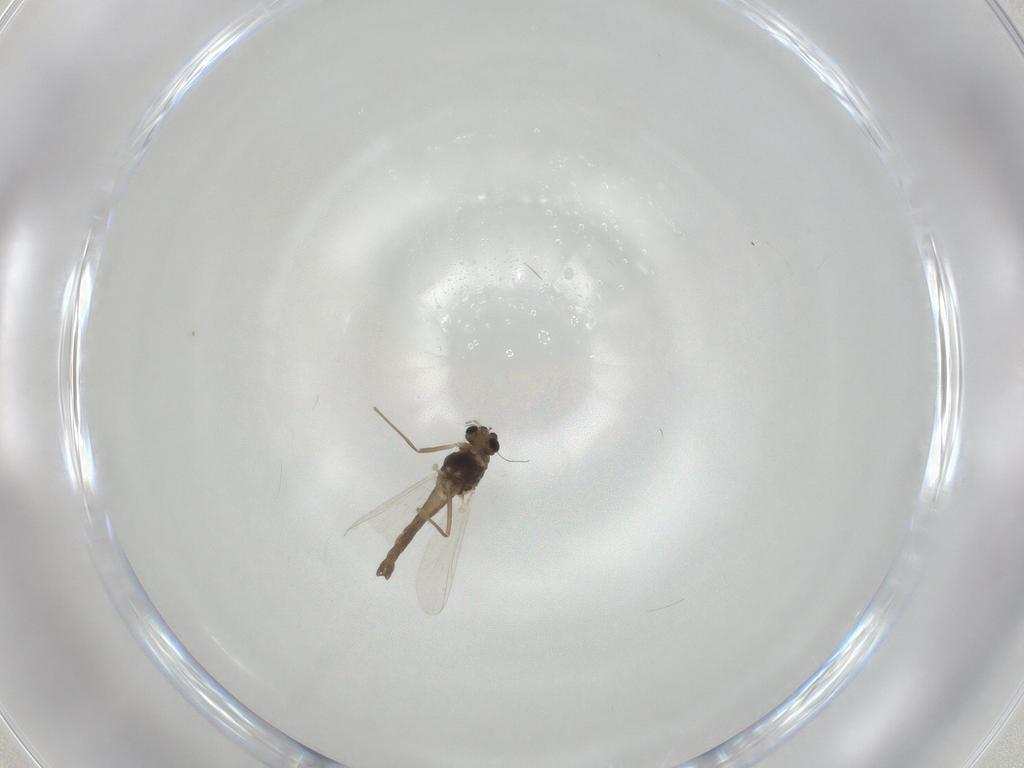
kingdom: Animalia
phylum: Arthropoda
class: Insecta
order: Diptera
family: Chironomidae
